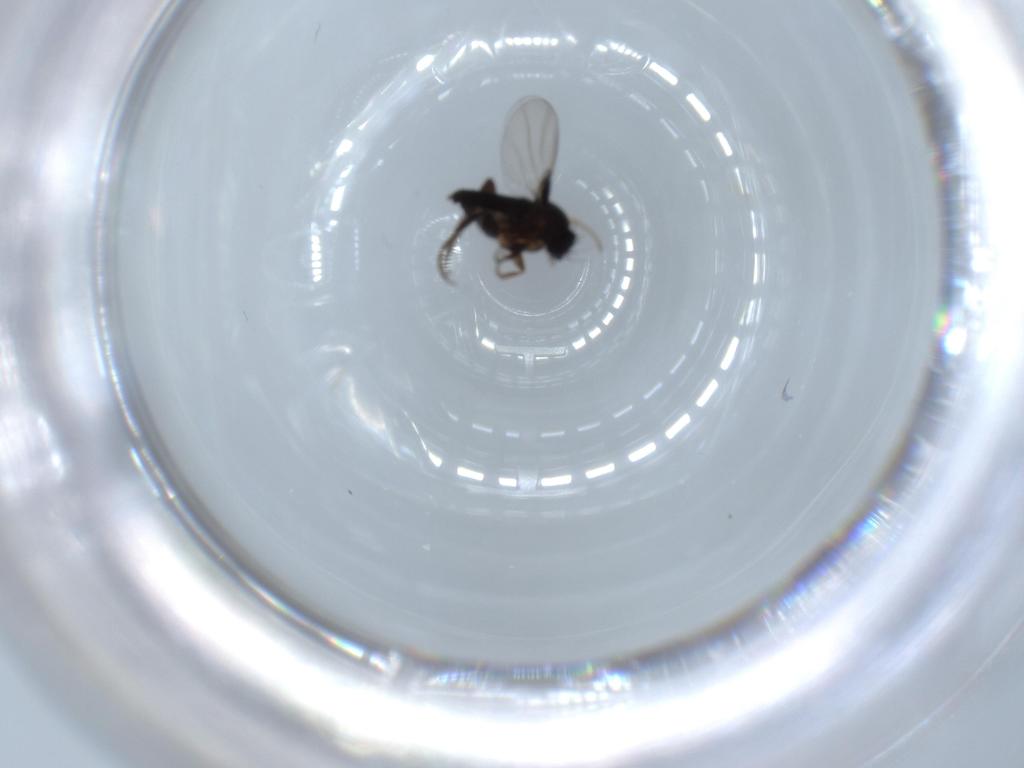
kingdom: Animalia
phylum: Arthropoda
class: Insecta
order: Diptera
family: Phoridae
